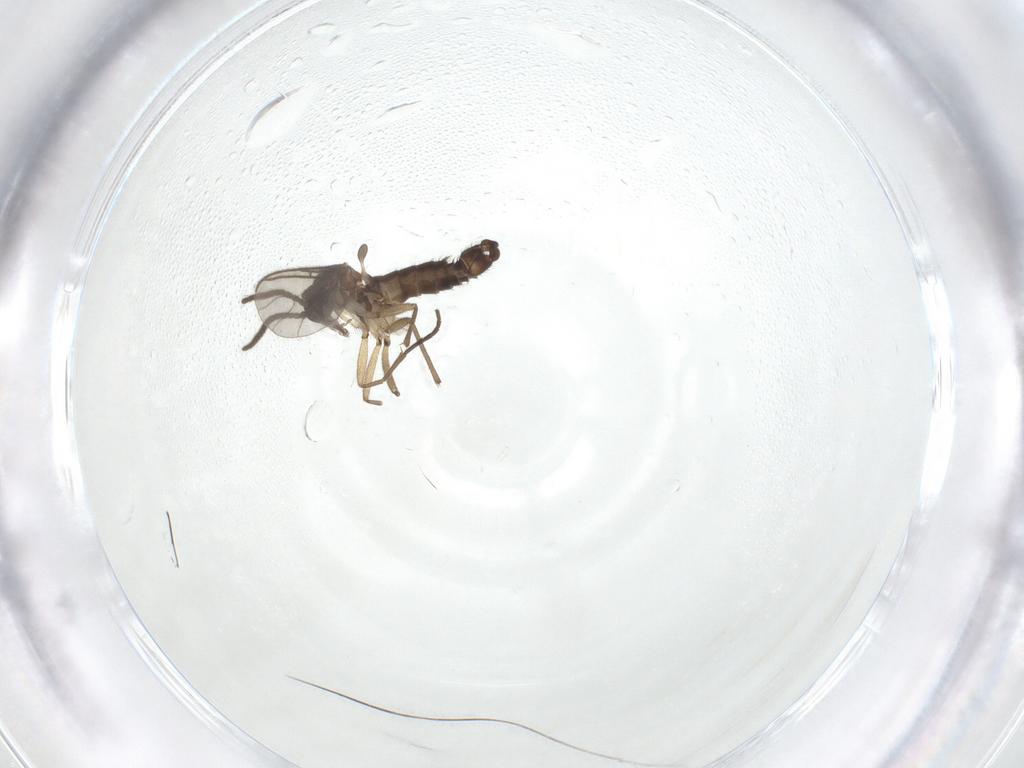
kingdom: Animalia
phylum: Arthropoda
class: Insecta
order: Diptera
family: Sciaridae
